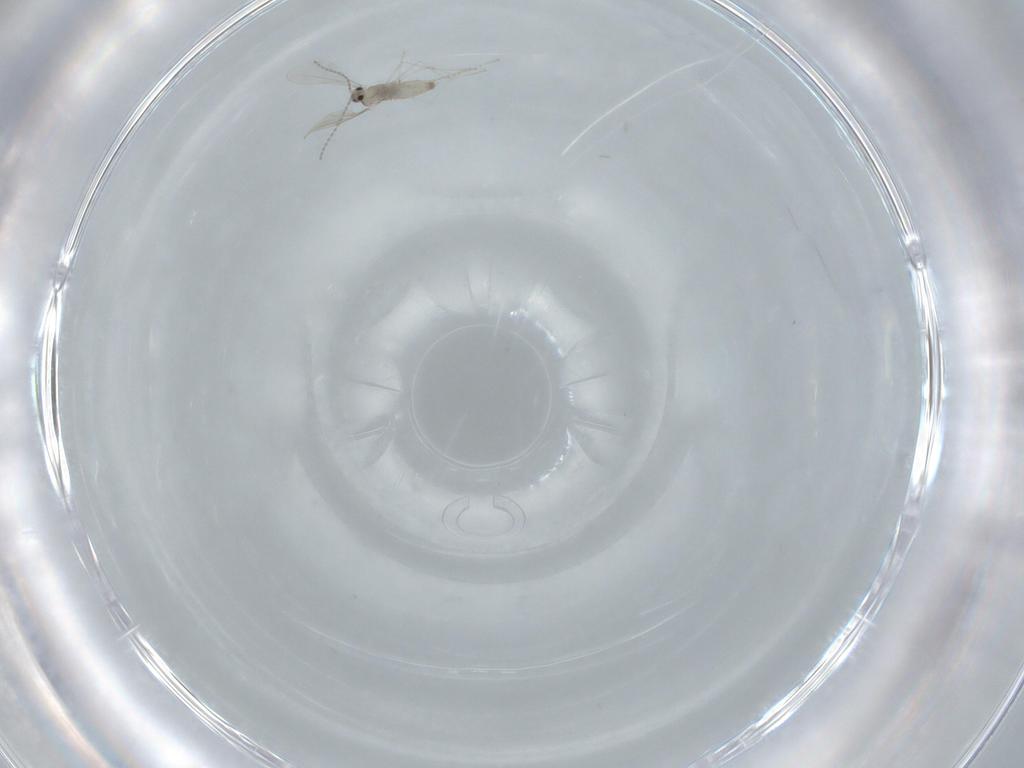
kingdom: Animalia
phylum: Arthropoda
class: Insecta
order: Diptera
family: Cecidomyiidae
